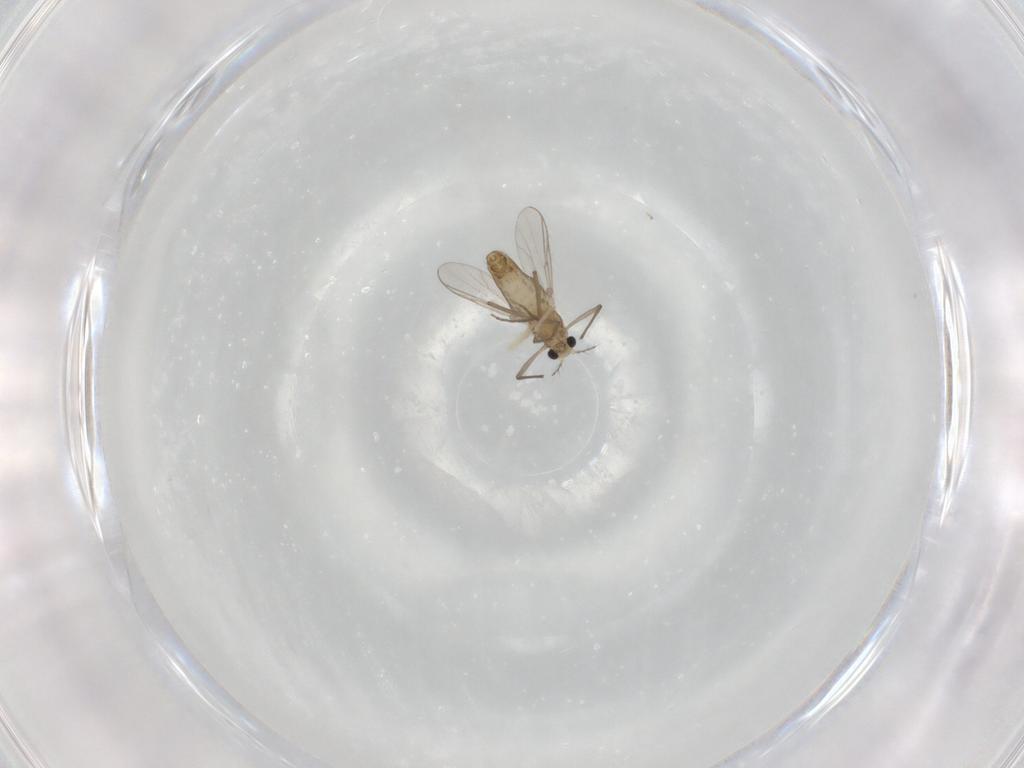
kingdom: Animalia
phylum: Arthropoda
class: Insecta
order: Diptera
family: Chironomidae
